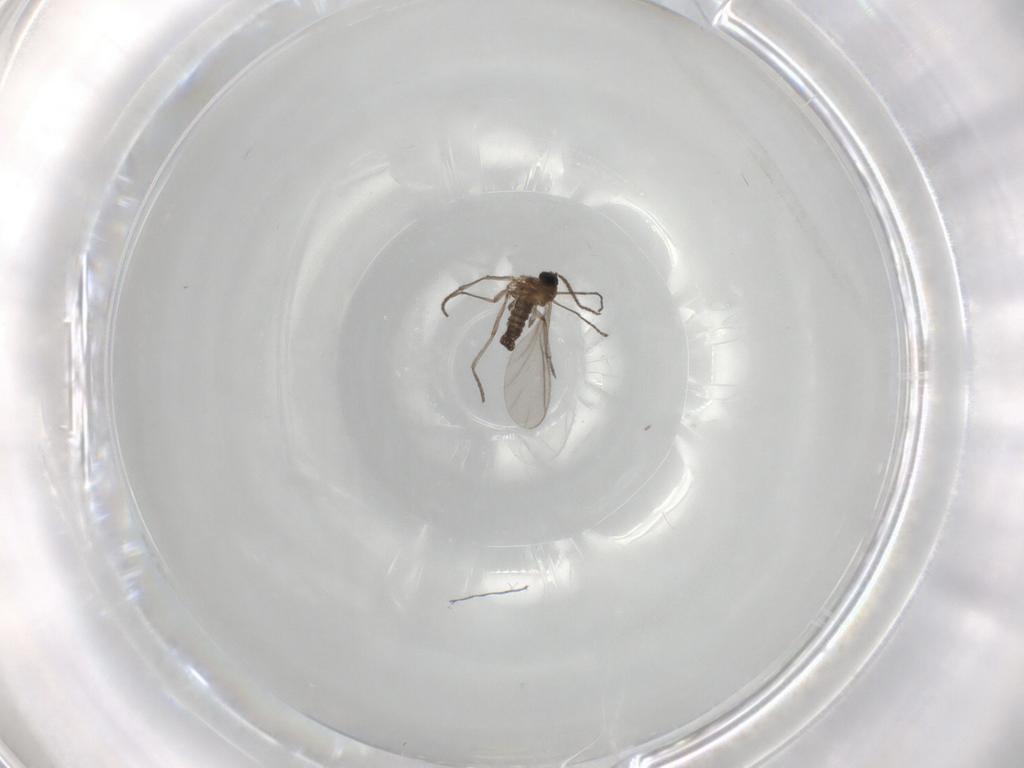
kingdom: Animalia
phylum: Arthropoda
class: Insecta
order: Diptera
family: Sciaridae
